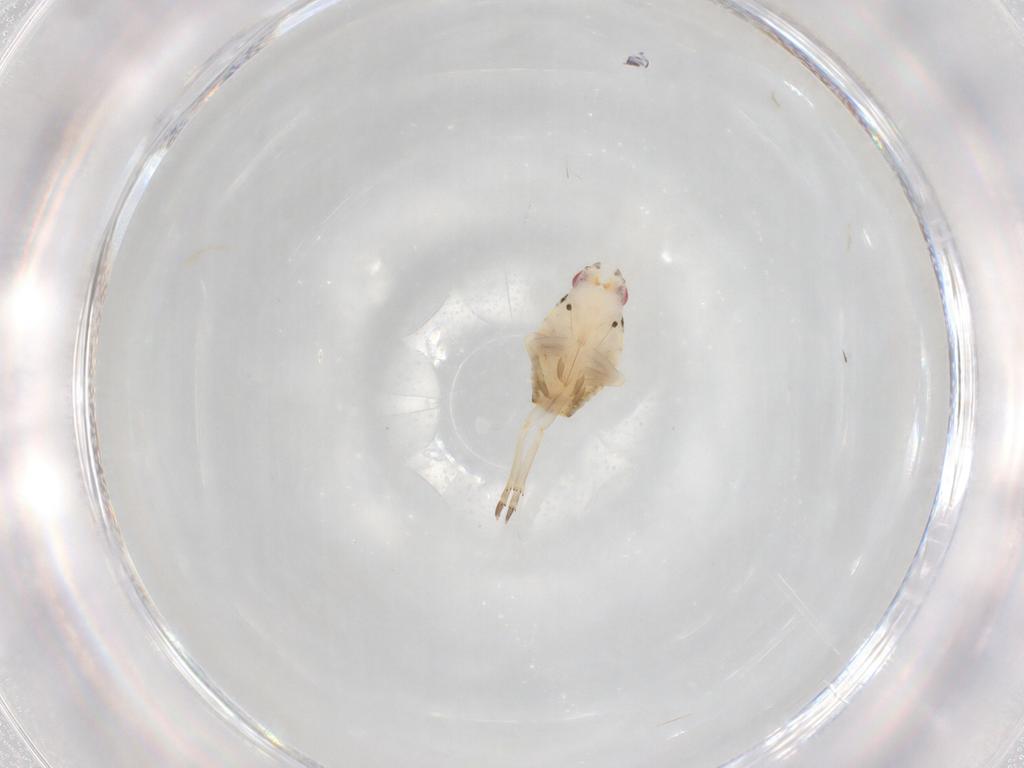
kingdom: Animalia
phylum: Arthropoda
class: Insecta
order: Hemiptera
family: Flatidae
